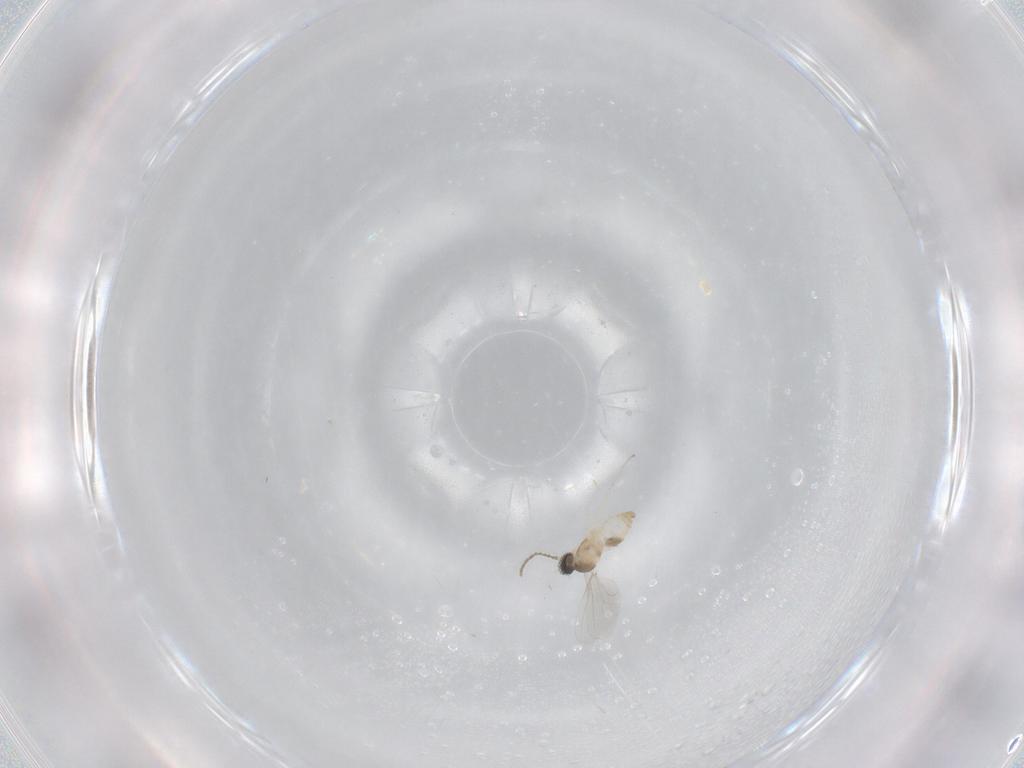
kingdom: Animalia
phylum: Arthropoda
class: Insecta
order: Diptera
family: Cecidomyiidae
